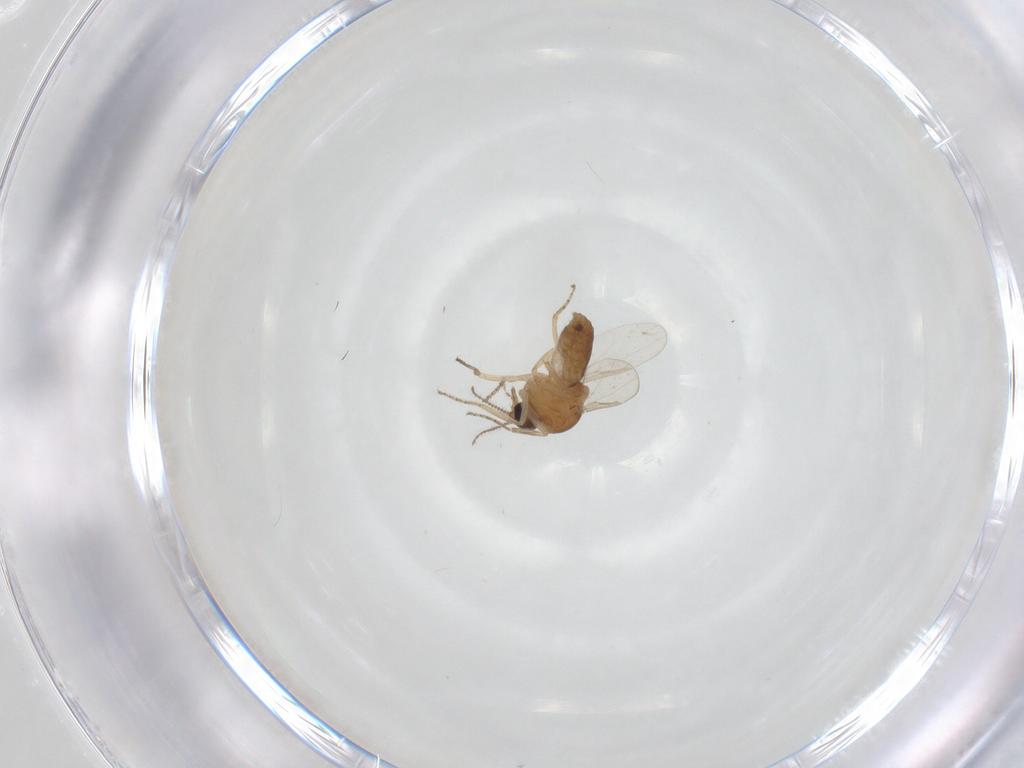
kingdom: Animalia
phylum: Arthropoda
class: Insecta
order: Diptera
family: Ceratopogonidae
